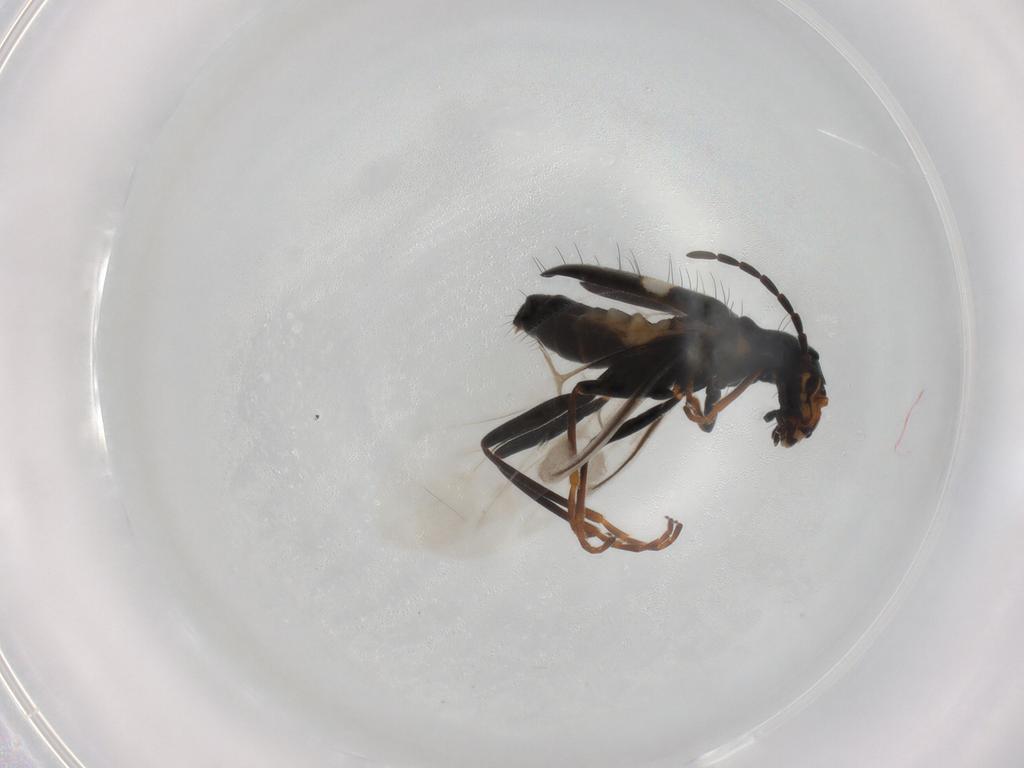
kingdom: Animalia
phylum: Arthropoda
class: Insecta
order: Coleoptera
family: Melyridae
